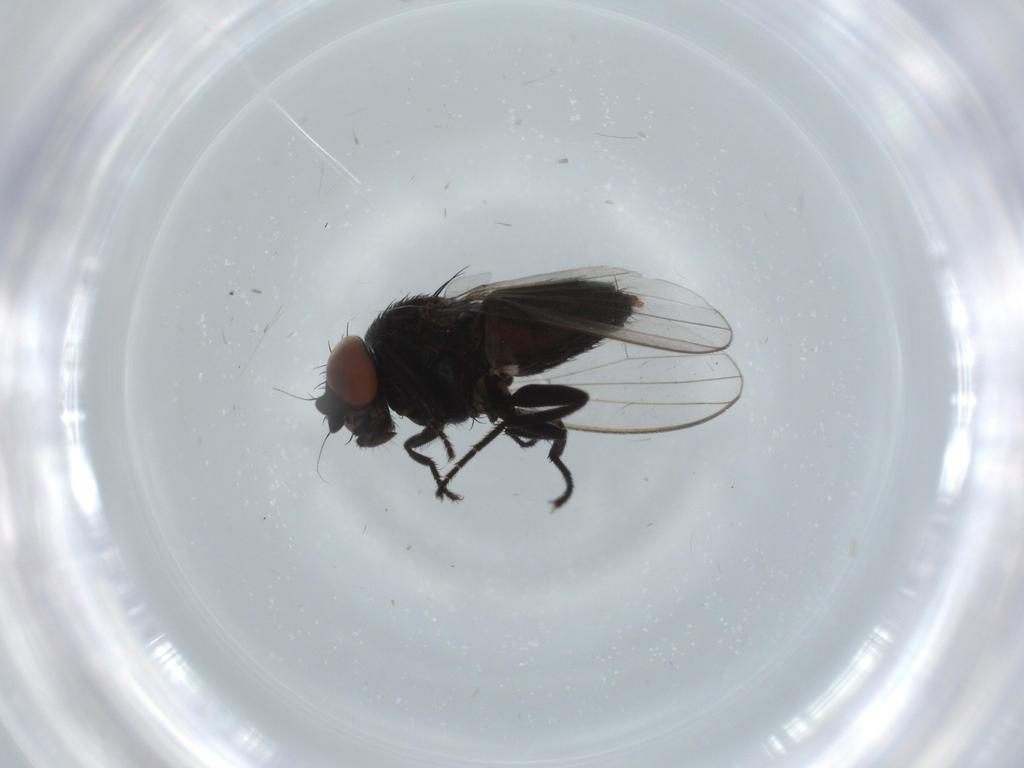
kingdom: Animalia
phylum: Arthropoda
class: Insecta
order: Diptera
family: Phoridae
